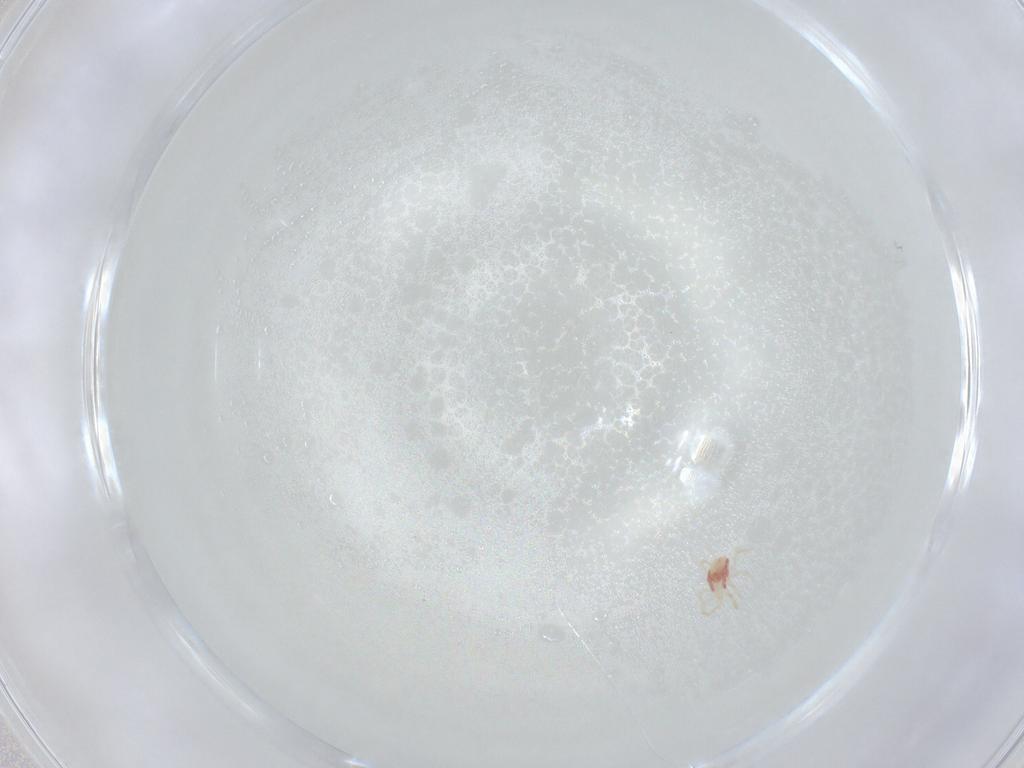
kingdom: Animalia
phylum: Arthropoda
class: Arachnida
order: Mesostigmata
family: Phytoseiidae
